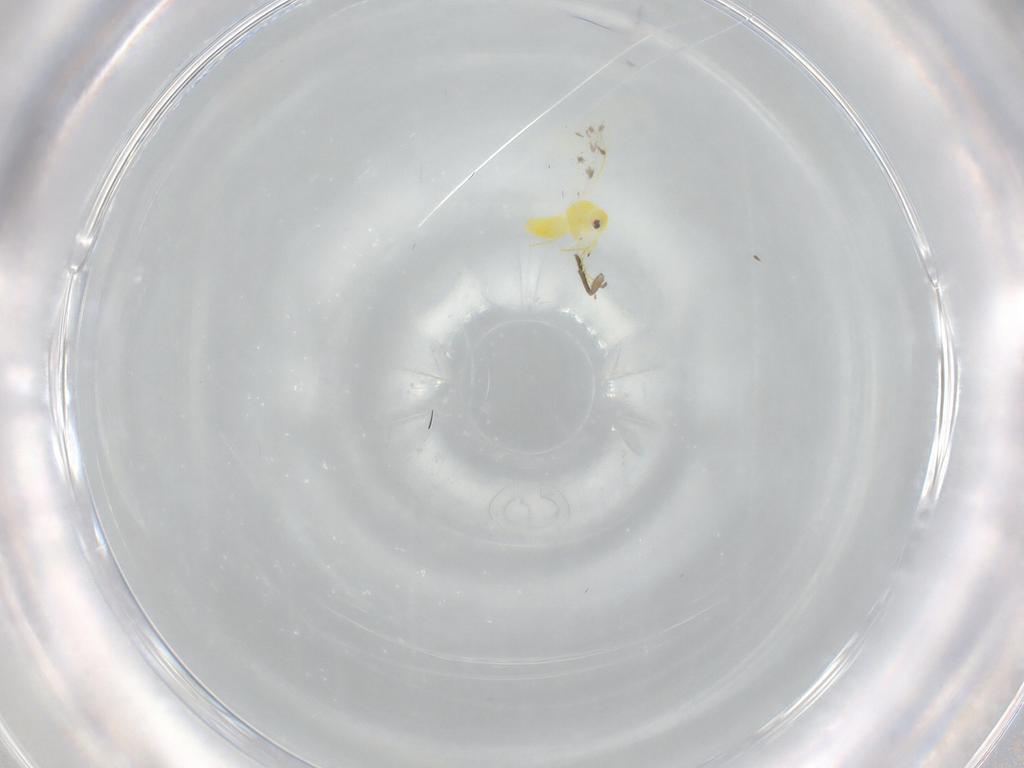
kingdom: Animalia
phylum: Arthropoda
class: Insecta
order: Hemiptera
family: Aleyrodidae
